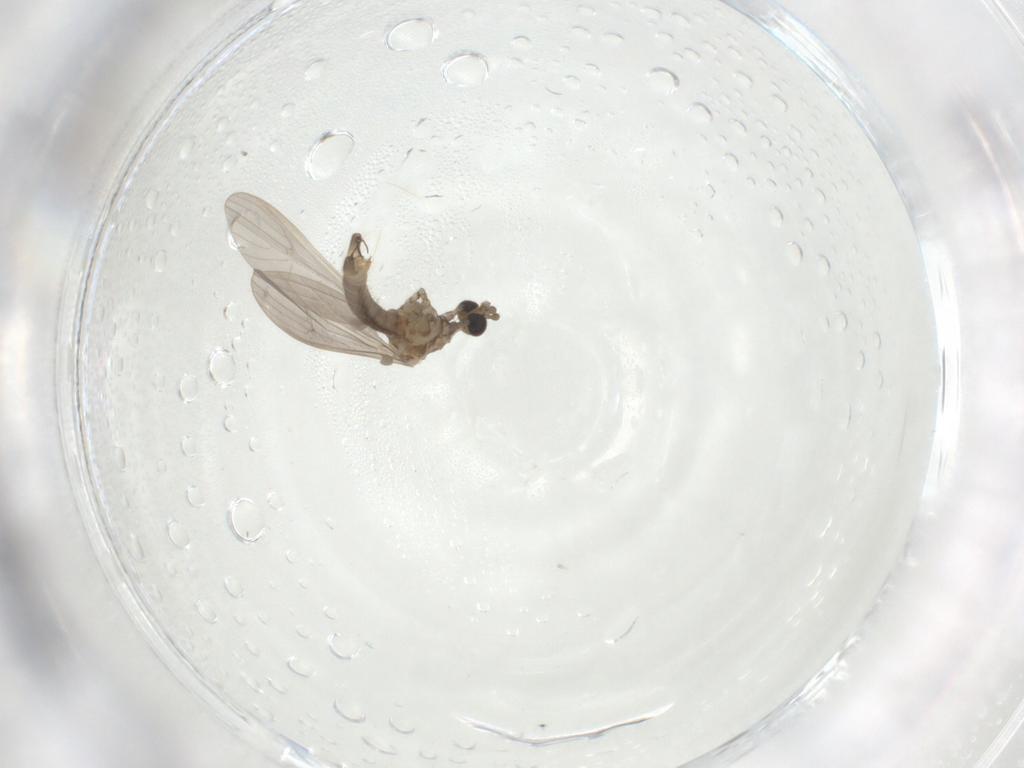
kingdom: Animalia
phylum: Arthropoda
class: Insecta
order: Diptera
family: Limoniidae
